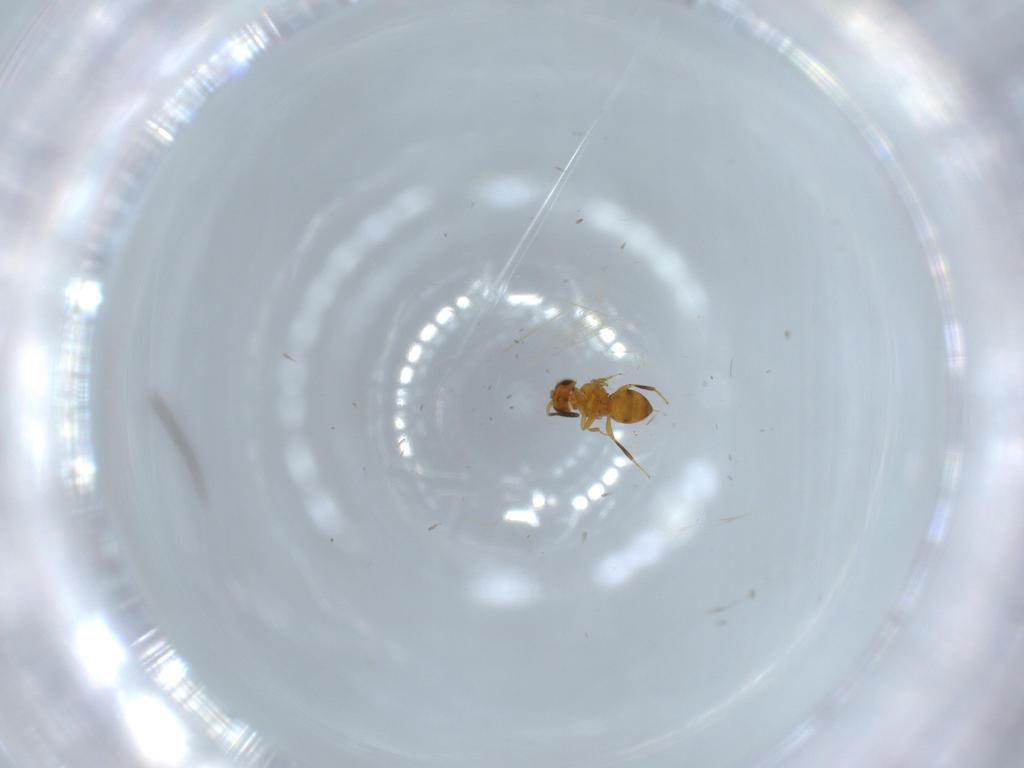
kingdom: Animalia
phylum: Arthropoda
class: Insecta
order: Hymenoptera
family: Scelionidae
